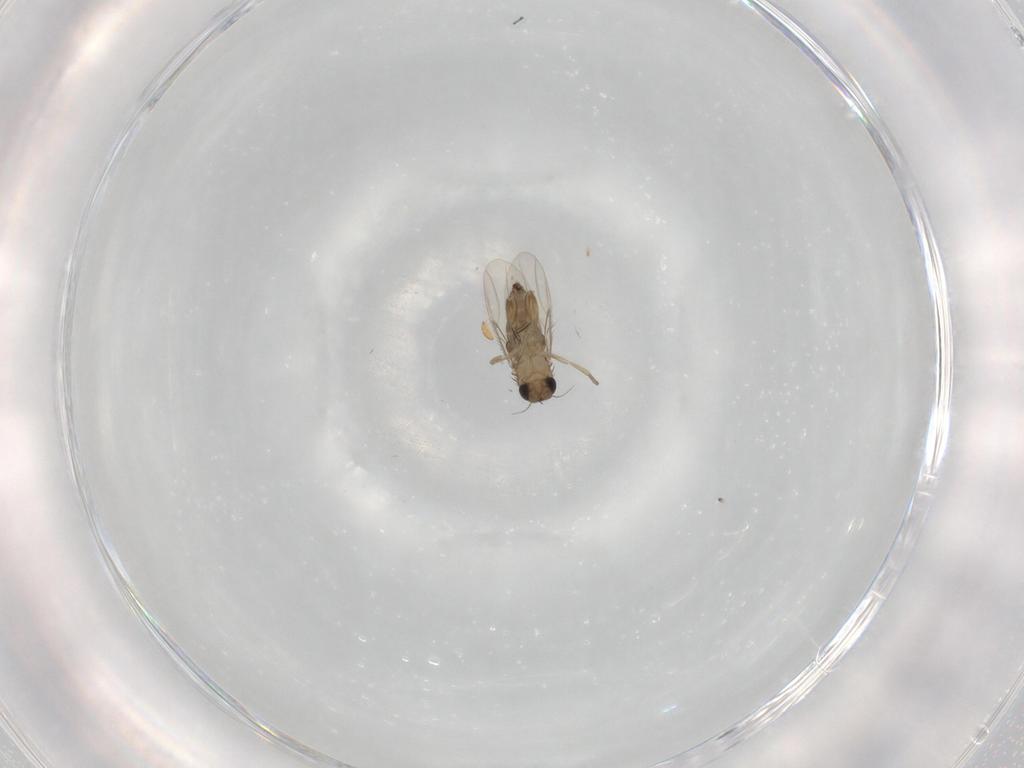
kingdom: Animalia
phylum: Arthropoda
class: Insecta
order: Diptera
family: Phoridae
